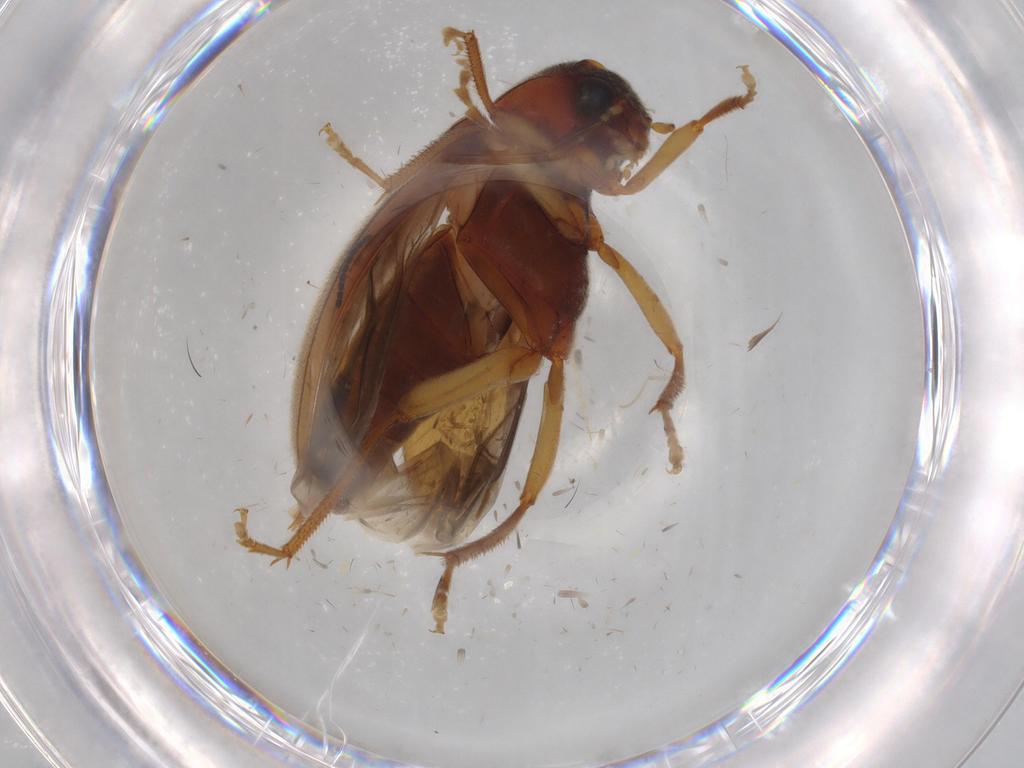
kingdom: Animalia
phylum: Arthropoda
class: Insecta
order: Coleoptera
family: Ptilodactylidae
